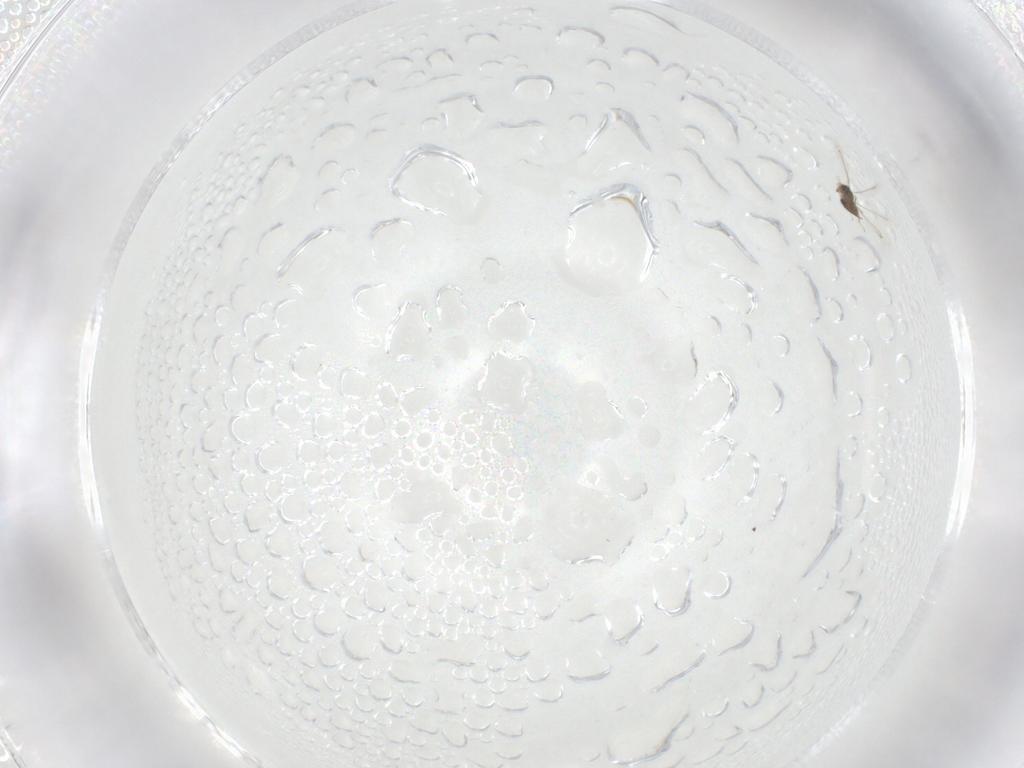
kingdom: Animalia
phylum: Arthropoda
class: Insecta
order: Hymenoptera
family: Mymaridae
